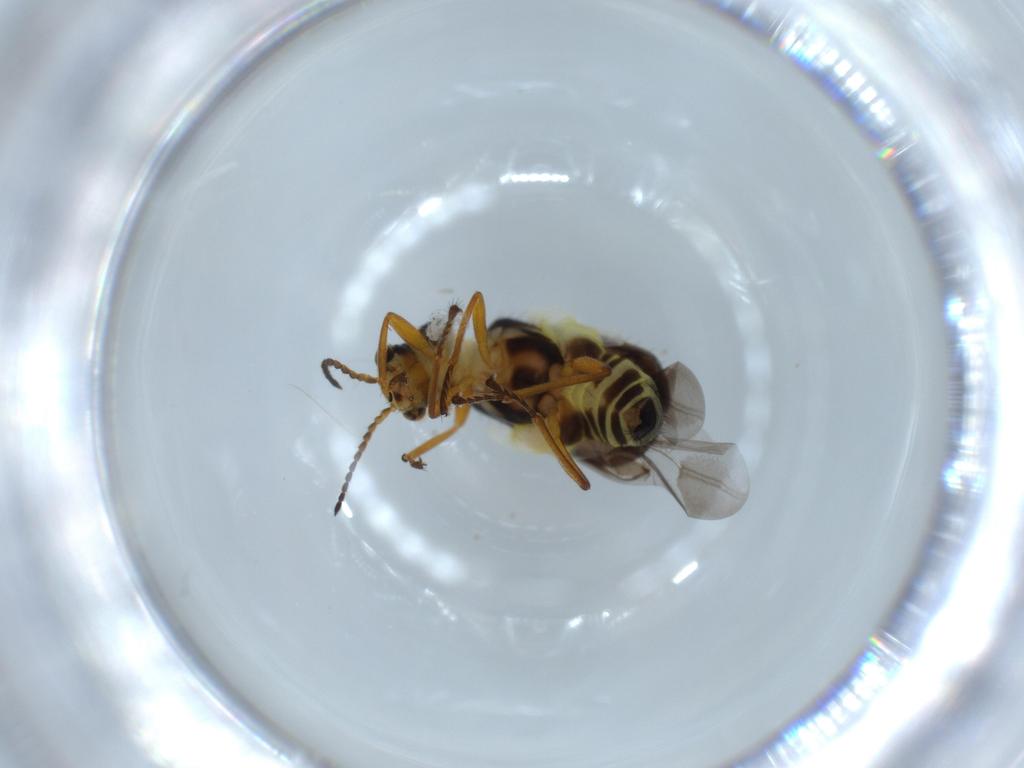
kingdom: Animalia
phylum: Arthropoda
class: Insecta
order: Coleoptera
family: Melyridae
